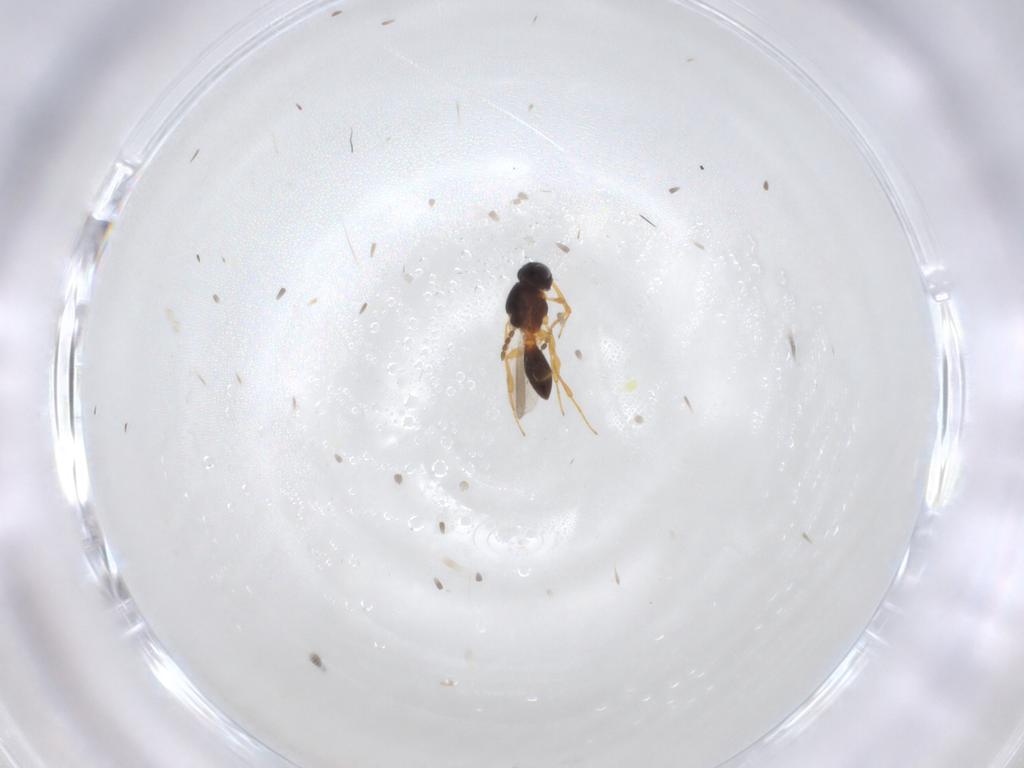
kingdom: Animalia
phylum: Arthropoda
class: Insecta
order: Hymenoptera
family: Platygastridae
